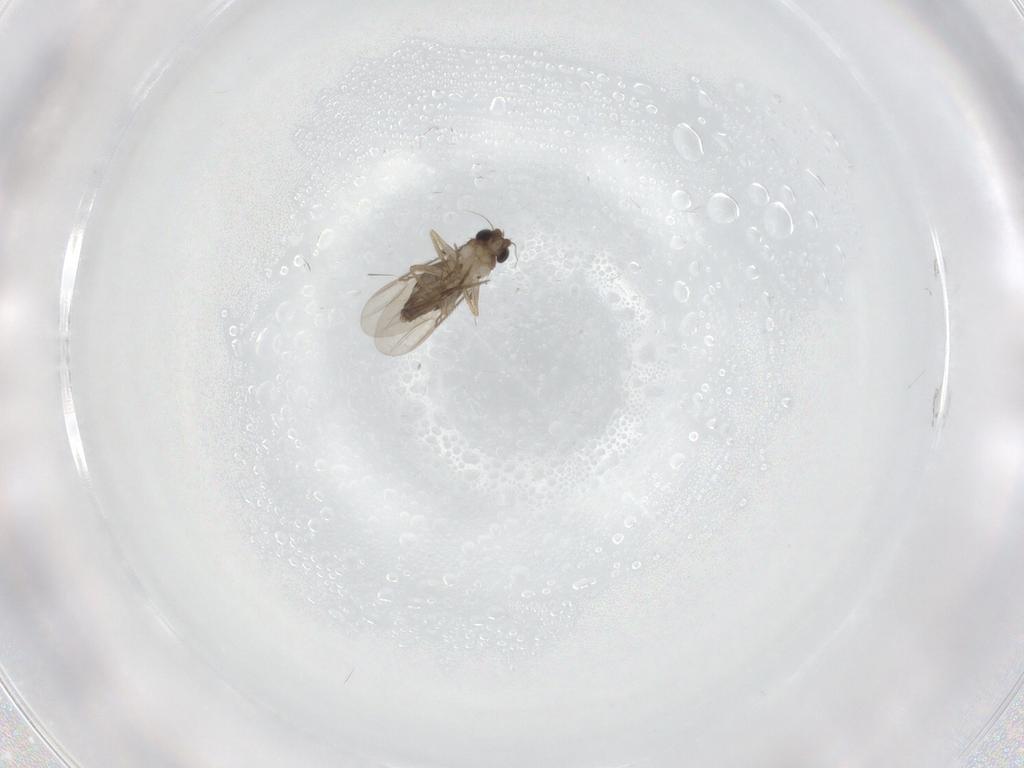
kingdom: Animalia
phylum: Arthropoda
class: Insecta
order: Diptera
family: Phoridae
